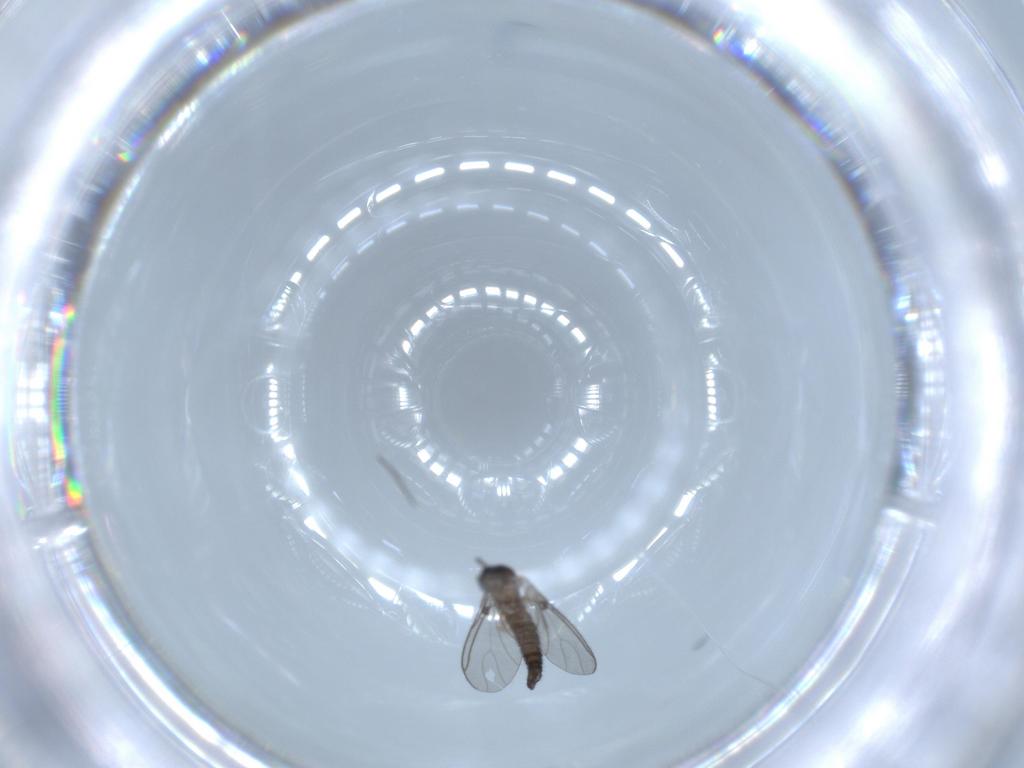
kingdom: Animalia
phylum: Arthropoda
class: Insecta
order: Diptera
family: Sciaridae
